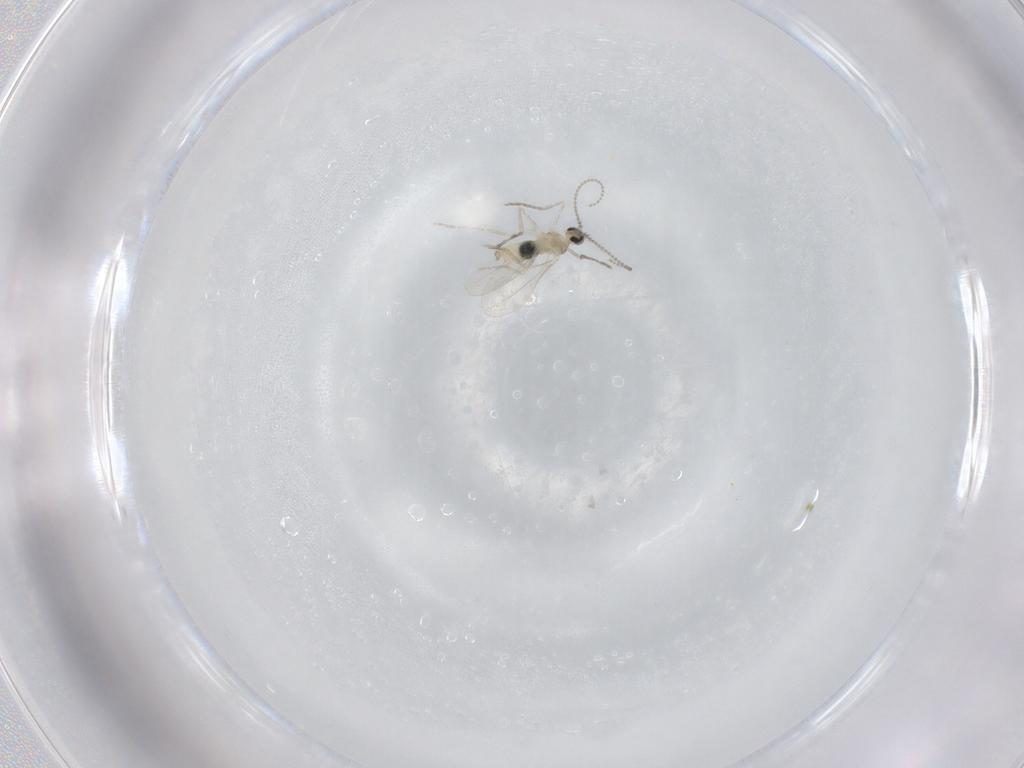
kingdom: Animalia
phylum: Arthropoda
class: Insecta
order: Diptera
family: Cecidomyiidae
